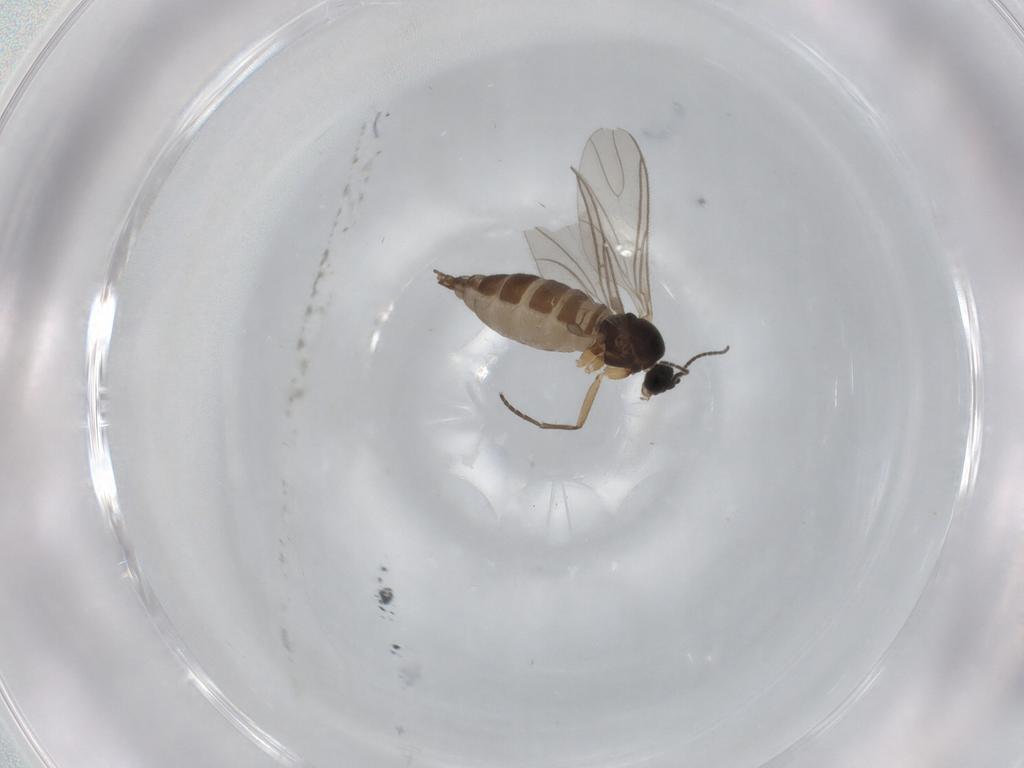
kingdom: Animalia
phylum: Arthropoda
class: Insecta
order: Diptera
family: Sciaridae
